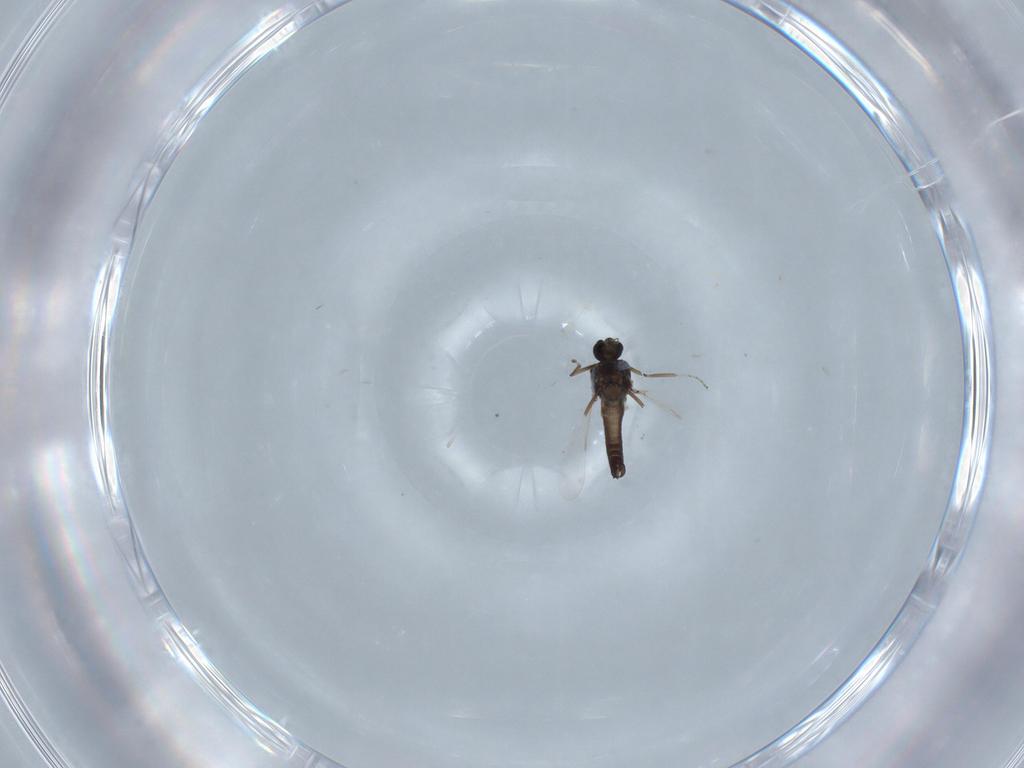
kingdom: Animalia
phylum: Arthropoda
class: Insecta
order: Diptera
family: Ceratopogonidae
